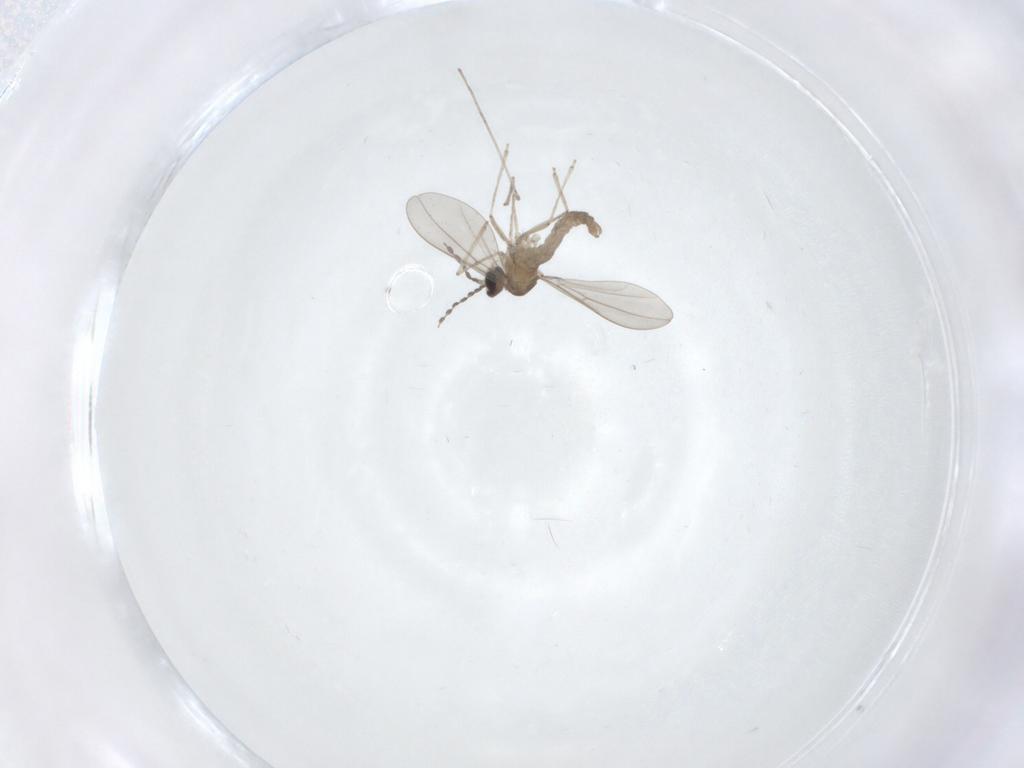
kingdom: Animalia
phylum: Arthropoda
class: Insecta
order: Diptera
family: Cecidomyiidae
